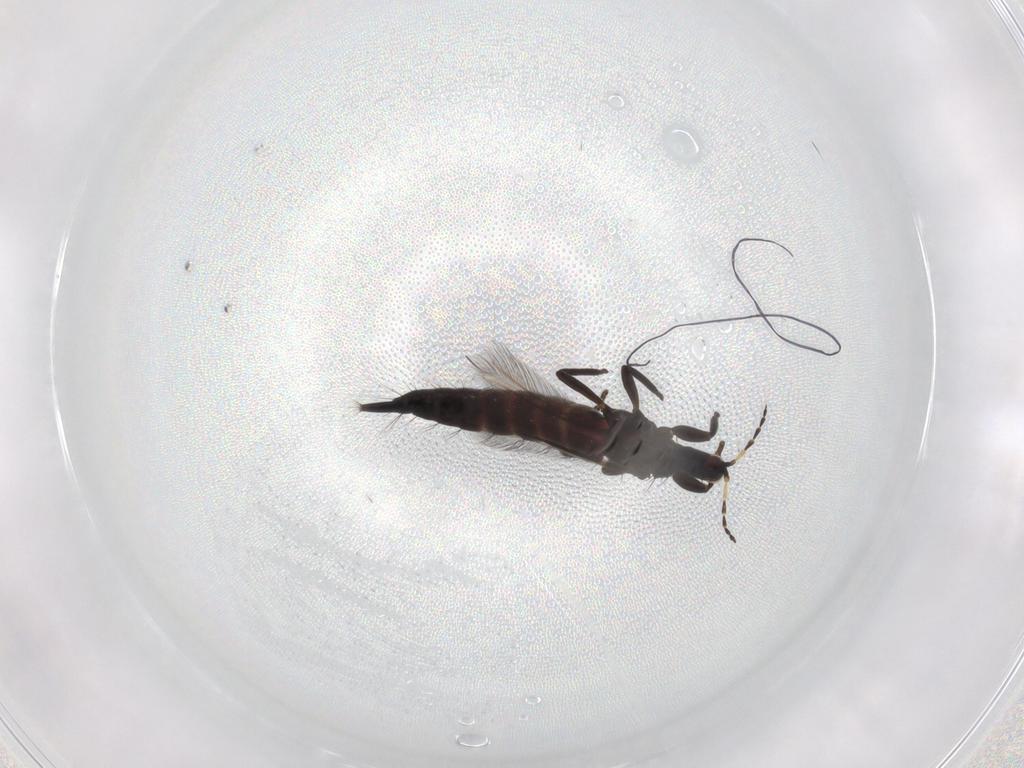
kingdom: Animalia
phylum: Arthropoda
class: Insecta
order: Thysanoptera
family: Phlaeothripidae
